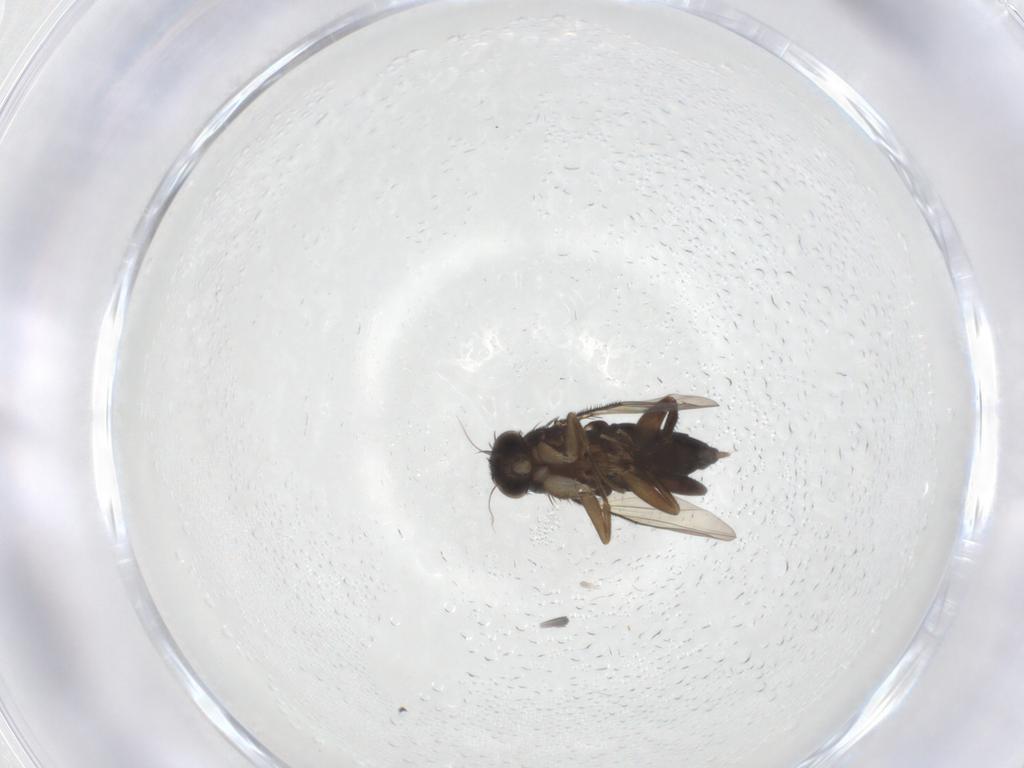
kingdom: Animalia
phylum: Arthropoda
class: Insecta
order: Diptera
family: Phoridae
